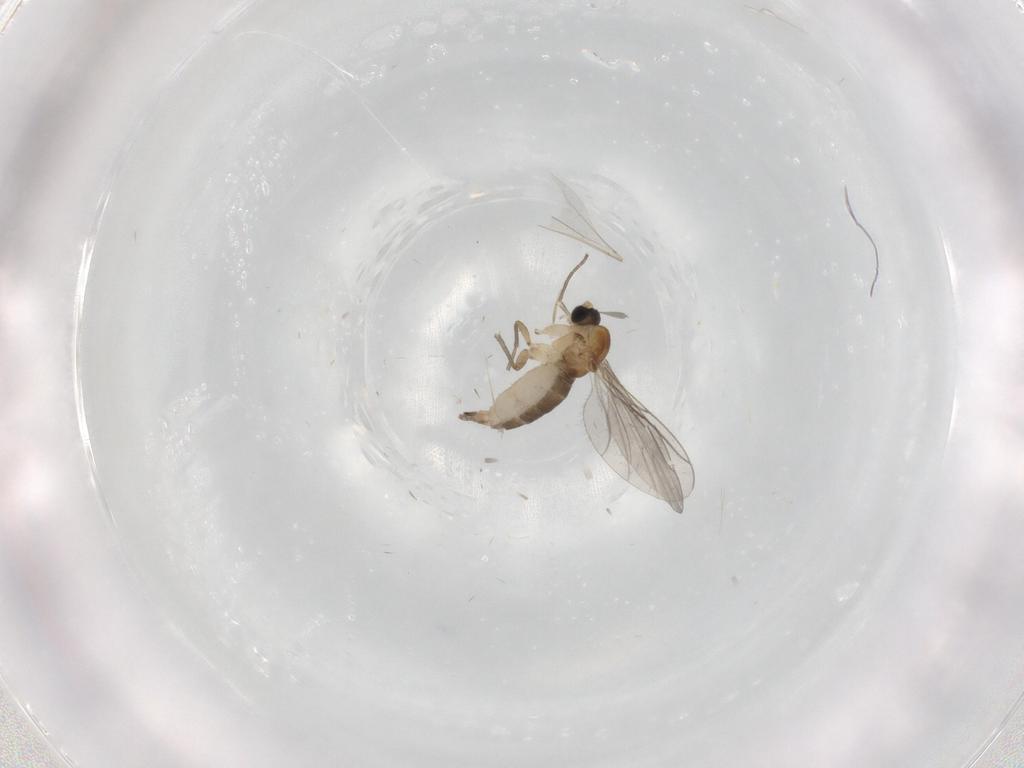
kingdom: Animalia
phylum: Arthropoda
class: Insecta
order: Diptera
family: Sciaridae
